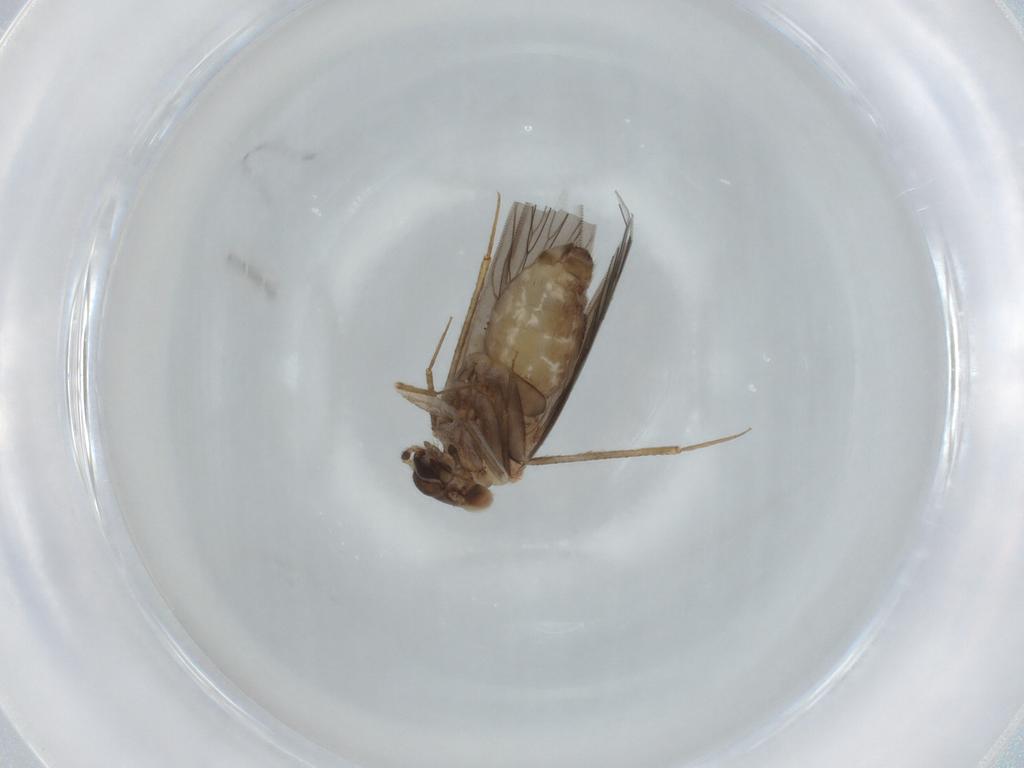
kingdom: Animalia
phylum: Arthropoda
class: Insecta
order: Psocodea
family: Lepidopsocidae
